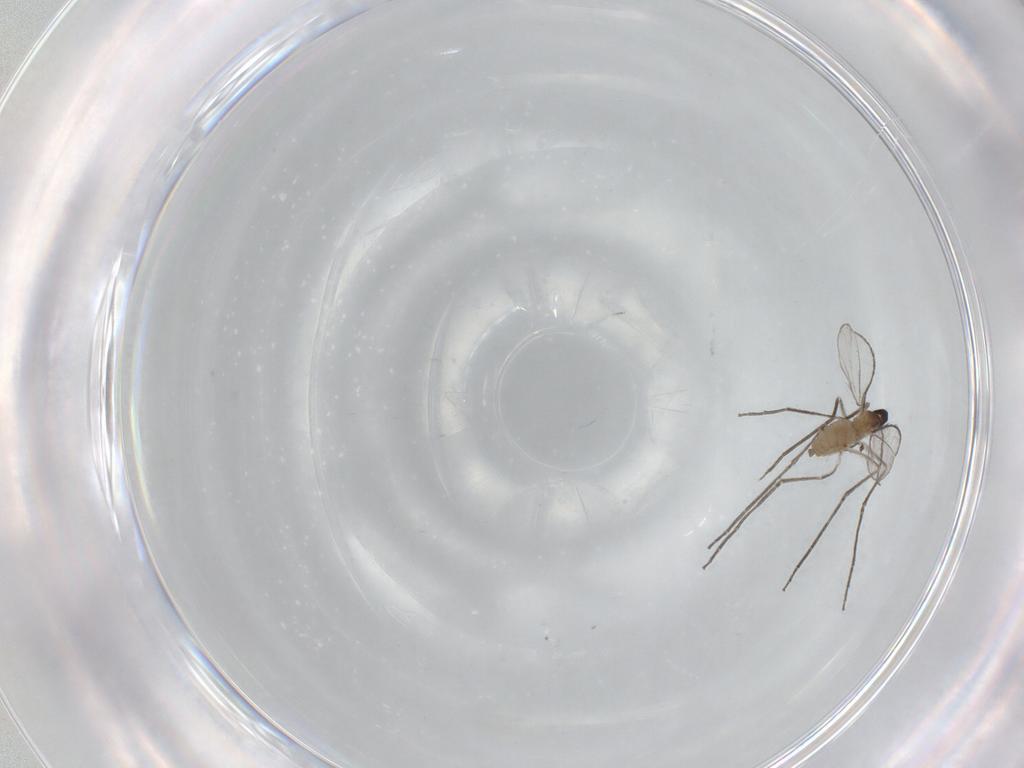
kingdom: Animalia
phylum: Arthropoda
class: Insecta
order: Diptera
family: Cecidomyiidae
